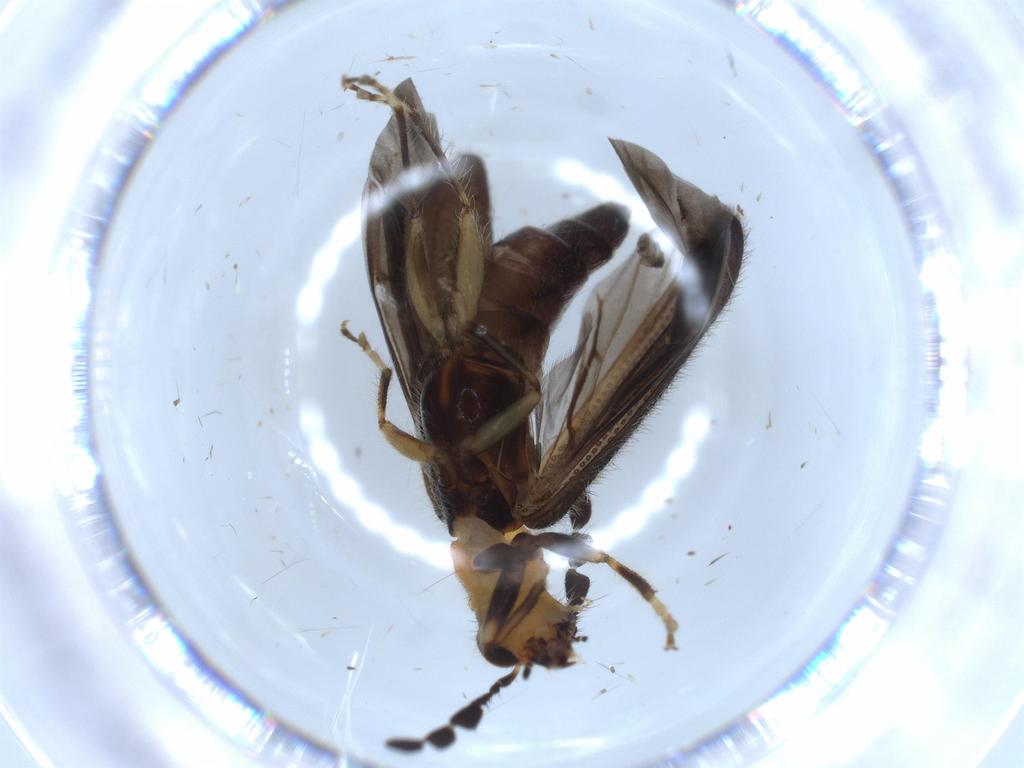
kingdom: Animalia
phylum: Arthropoda
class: Insecta
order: Coleoptera
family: Cleridae
